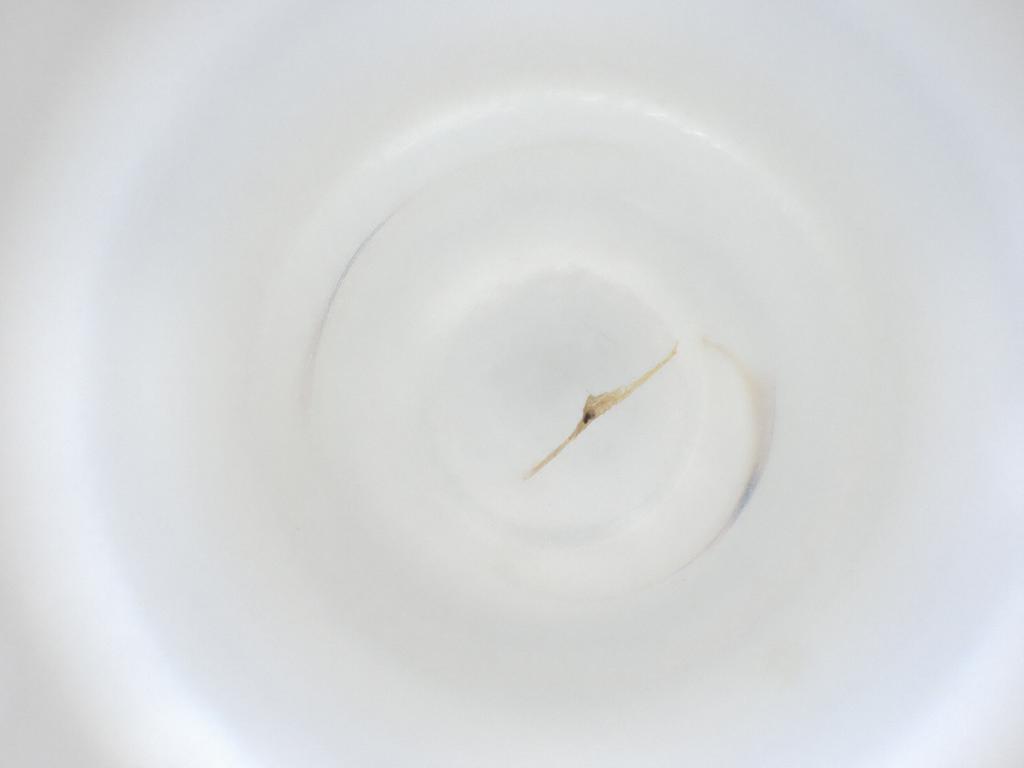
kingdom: Animalia
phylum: Arthropoda
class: Insecta
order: Diptera
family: Cecidomyiidae
